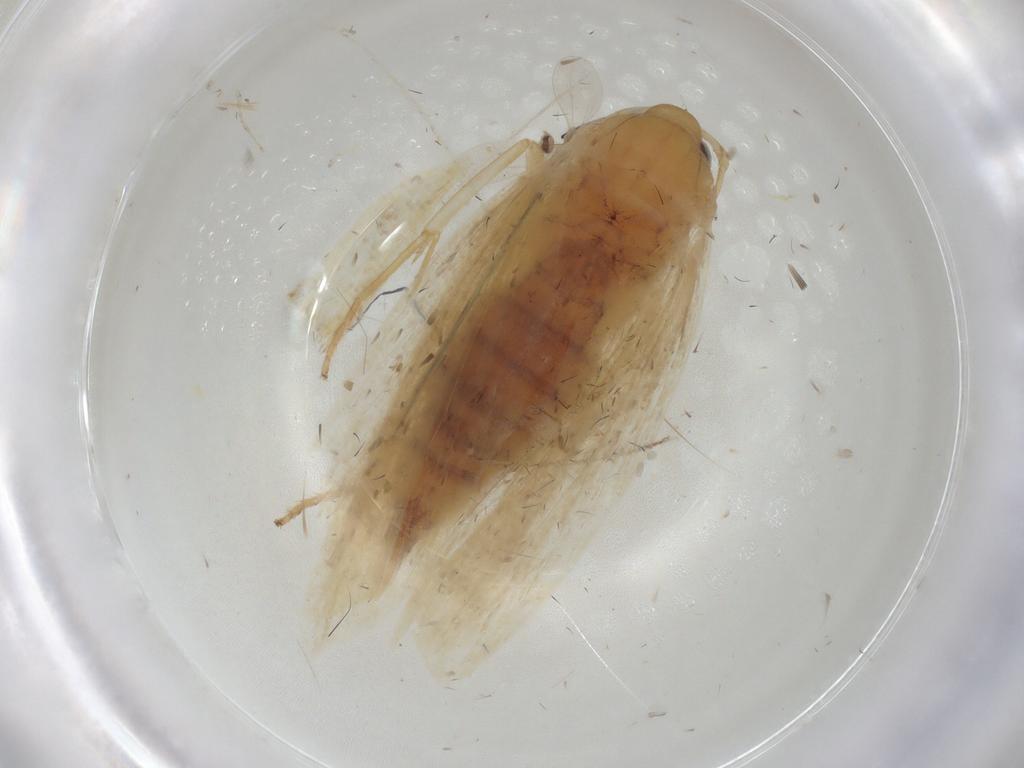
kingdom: Animalia
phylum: Arthropoda
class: Insecta
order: Lepidoptera
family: Depressariidae
